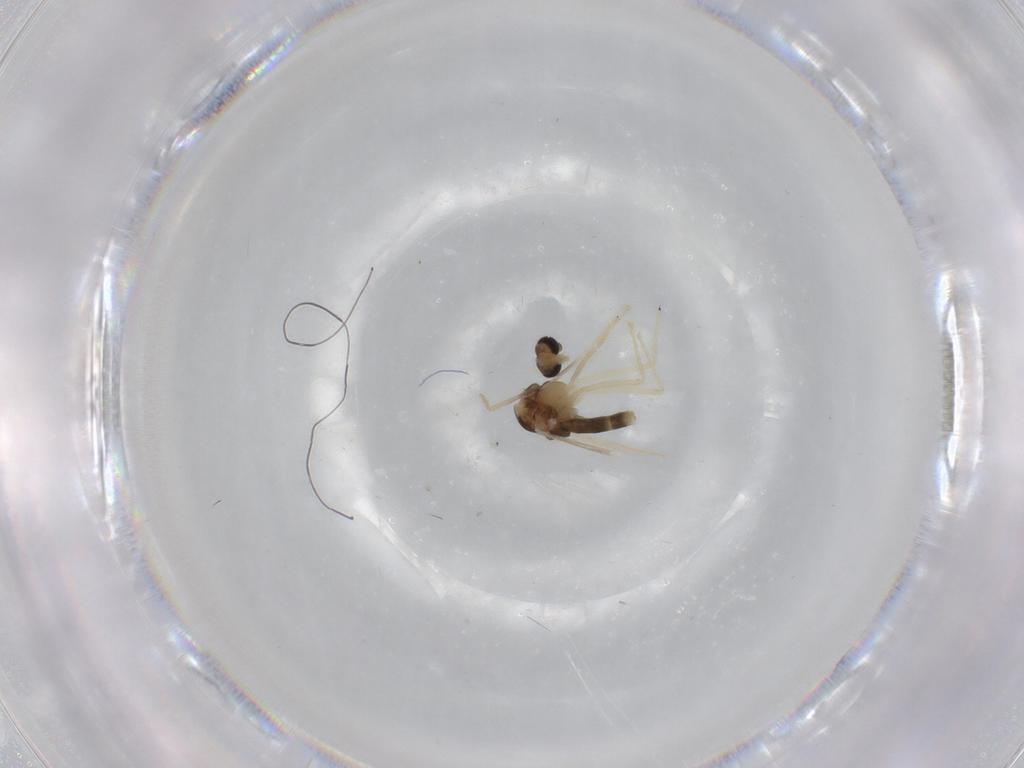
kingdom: Animalia
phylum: Arthropoda
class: Insecta
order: Diptera
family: Chironomidae
